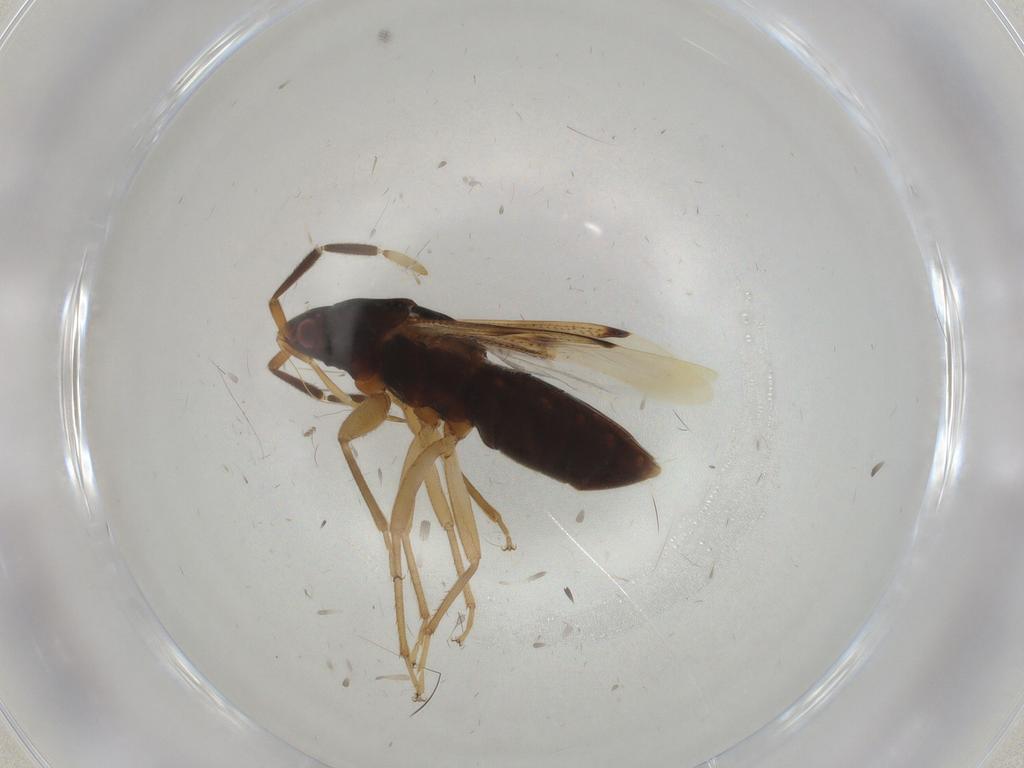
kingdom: Animalia
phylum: Arthropoda
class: Insecta
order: Hemiptera
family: Rhyparochromidae
